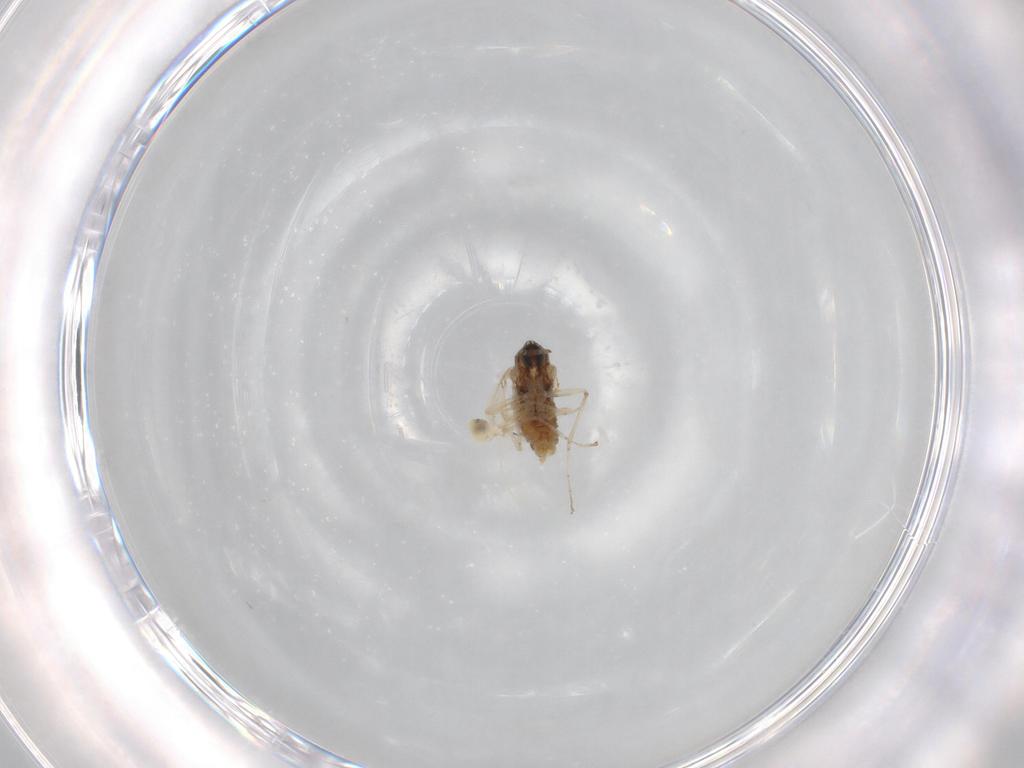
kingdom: Animalia
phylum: Arthropoda
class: Insecta
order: Diptera
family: Cecidomyiidae
